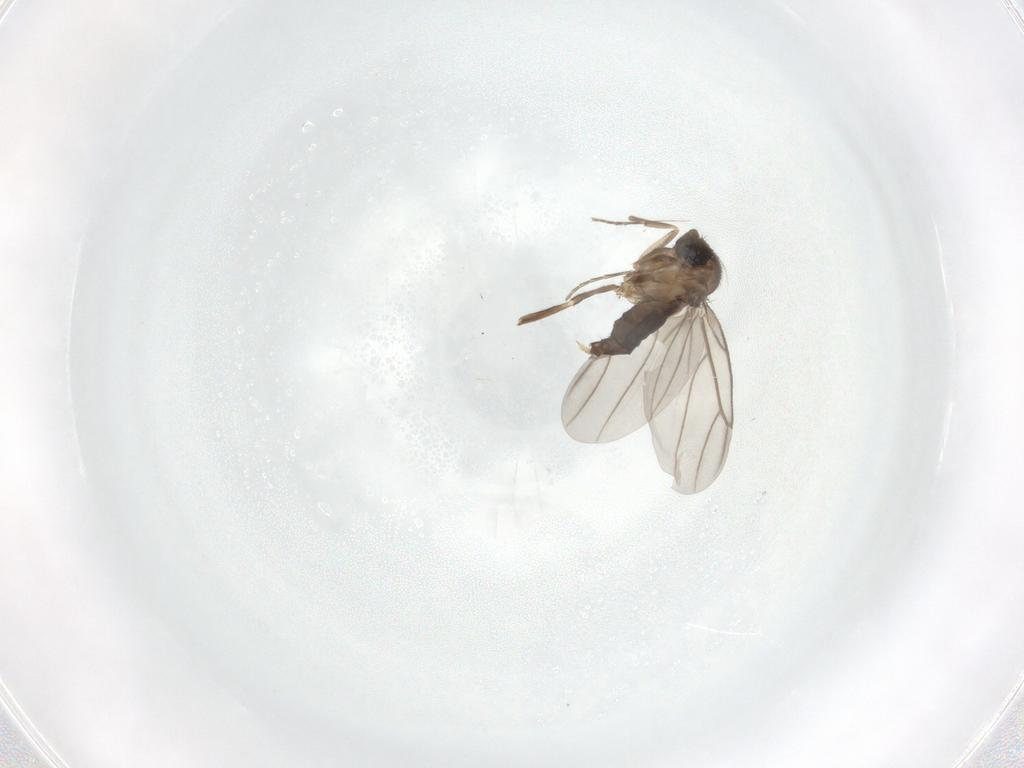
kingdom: Animalia
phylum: Arthropoda
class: Insecta
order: Diptera
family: Hybotidae
